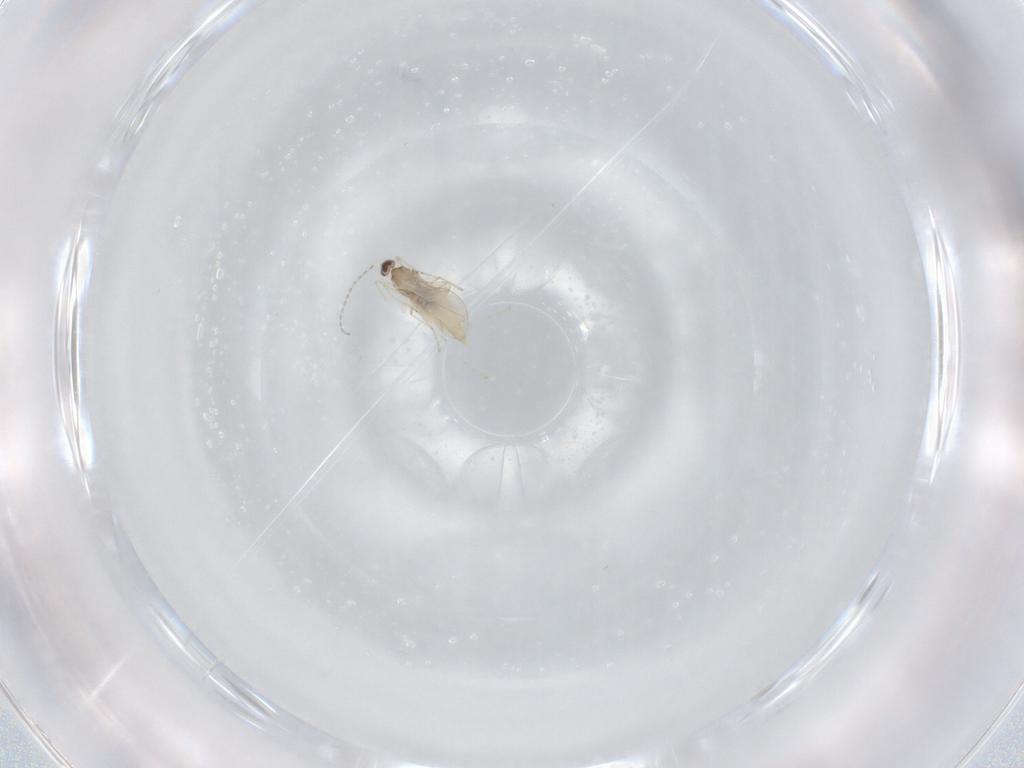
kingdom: Animalia
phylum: Arthropoda
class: Insecta
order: Diptera
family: Cecidomyiidae
